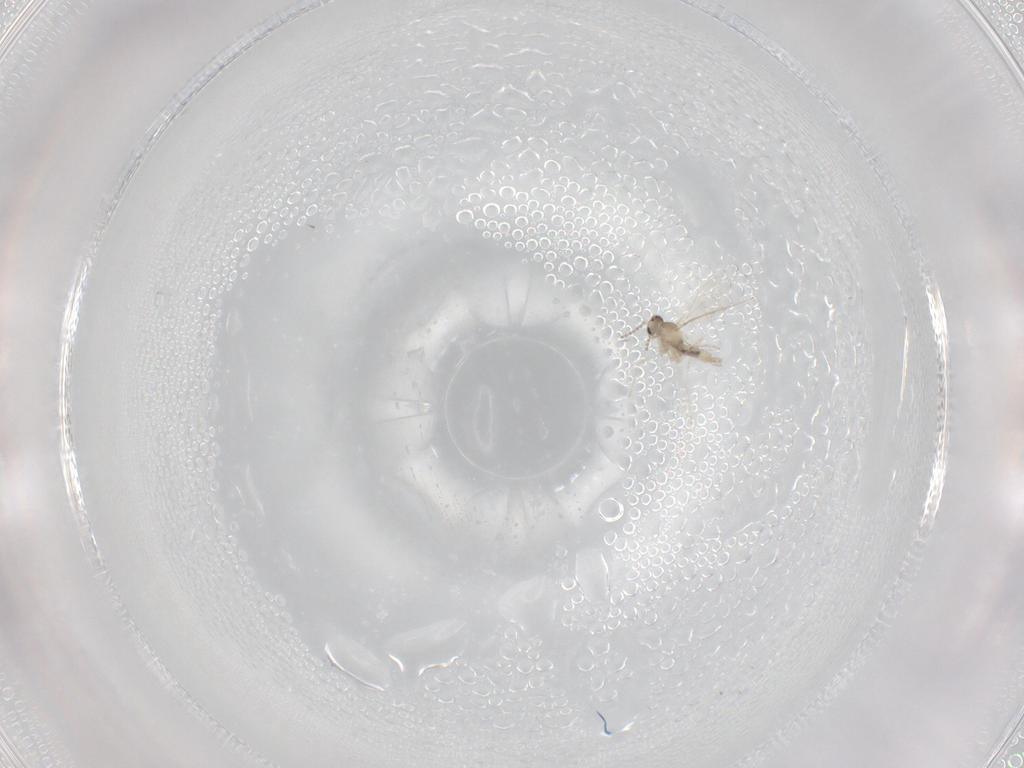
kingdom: Animalia
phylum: Arthropoda
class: Insecta
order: Diptera
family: Cecidomyiidae
